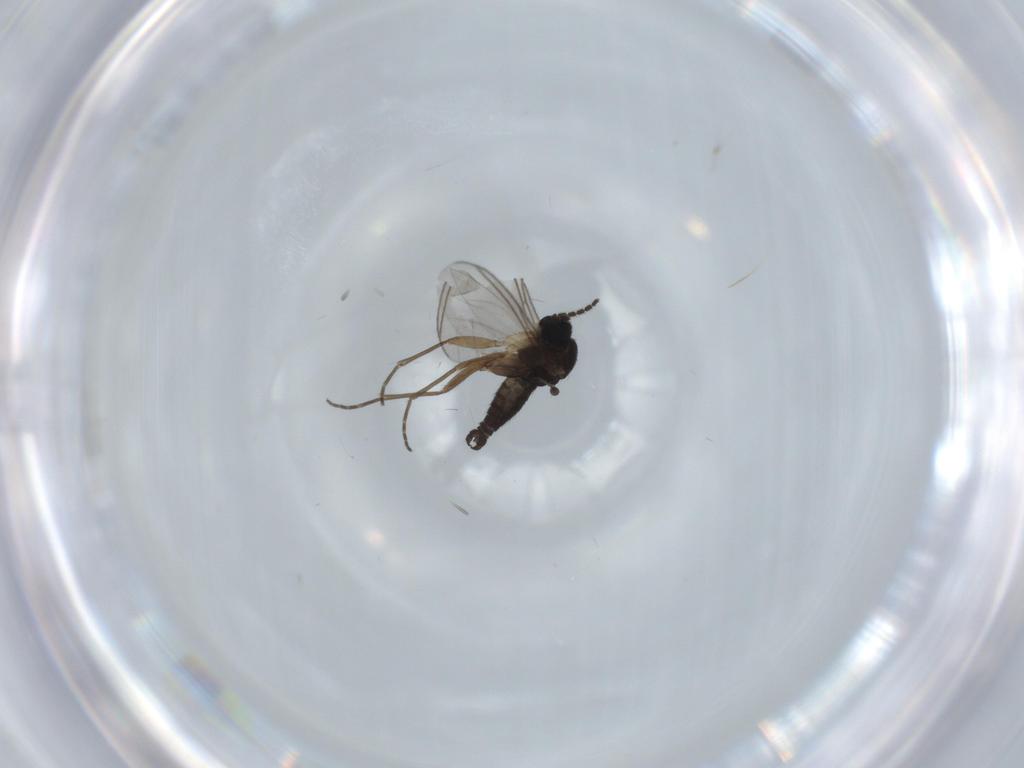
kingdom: Animalia
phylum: Arthropoda
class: Insecta
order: Diptera
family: Sciaridae
